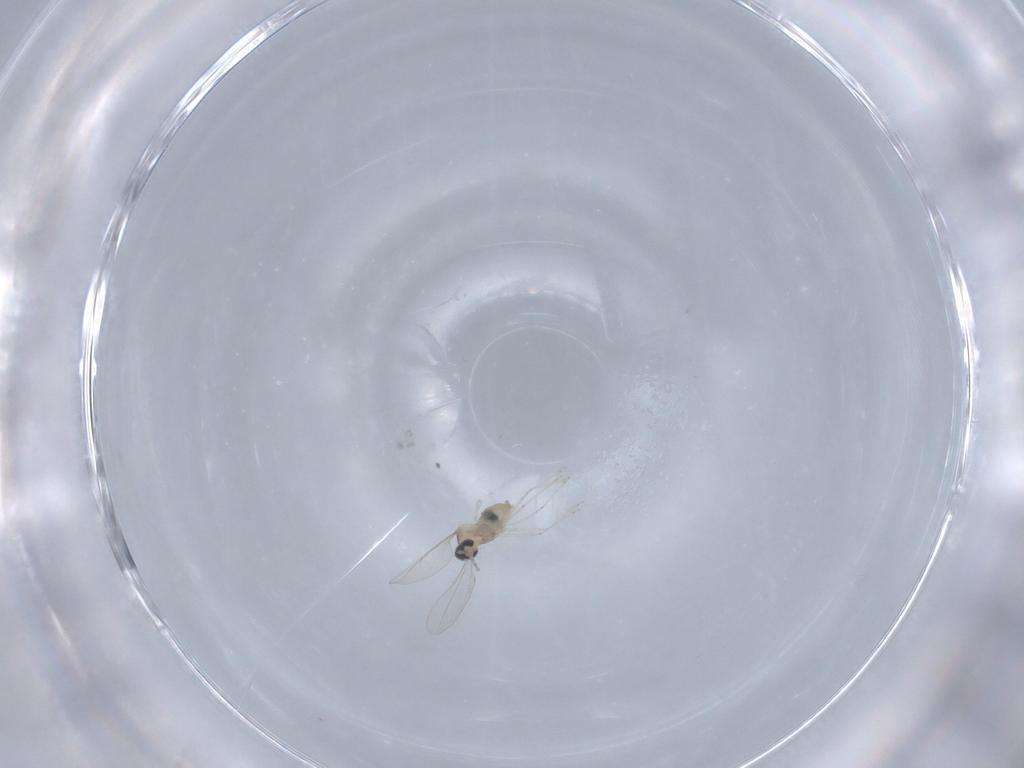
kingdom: Animalia
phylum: Arthropoda
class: Insecta
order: Diptera
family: Cecidomyiidae
